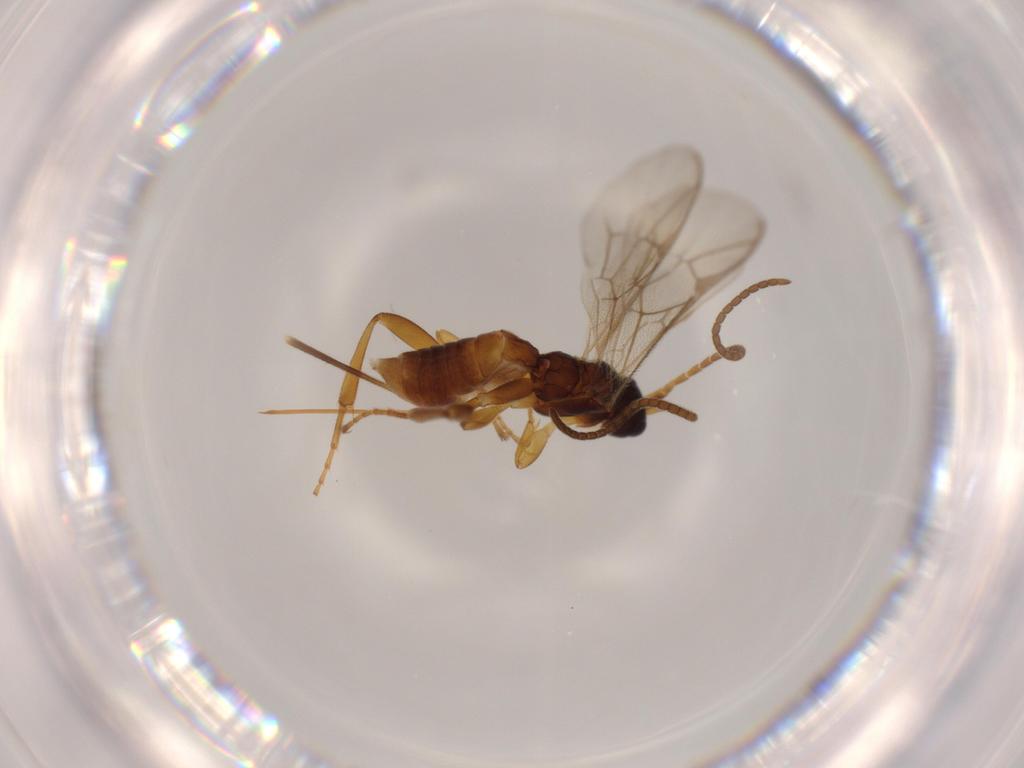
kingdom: Animalia
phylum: Arthropoda
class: Insecta
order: Hymenoptera
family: Ichneumonidae
